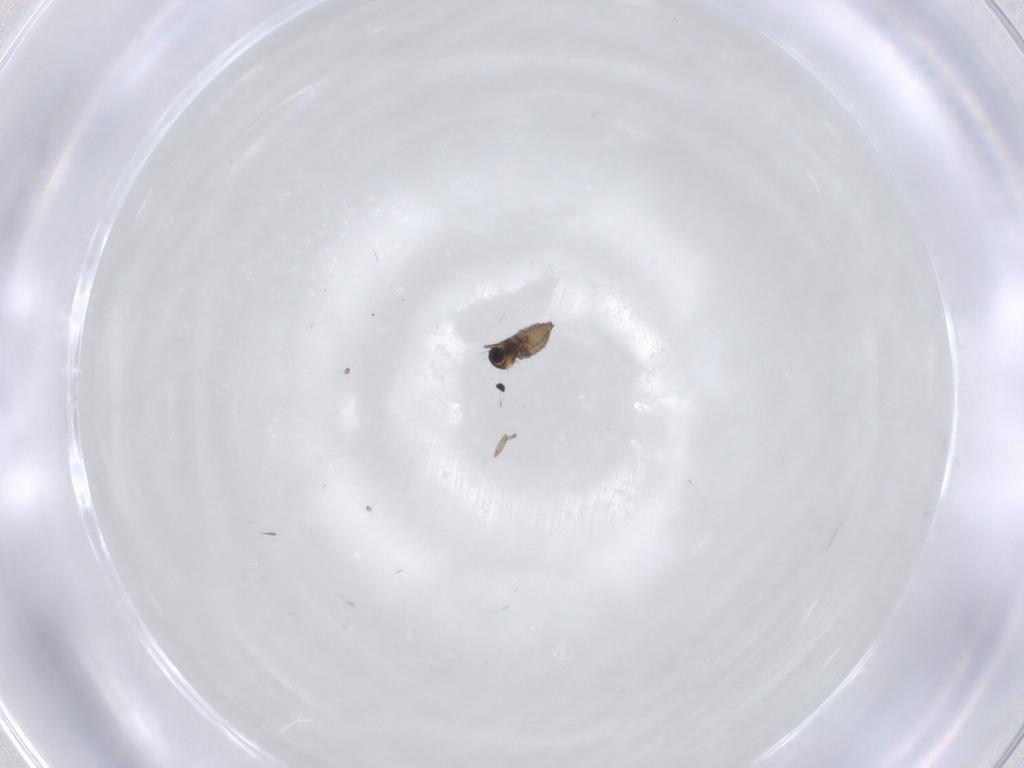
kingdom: Animalia
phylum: Arthropoda
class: Insecta
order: Diptera
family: Cecidomyiidae
